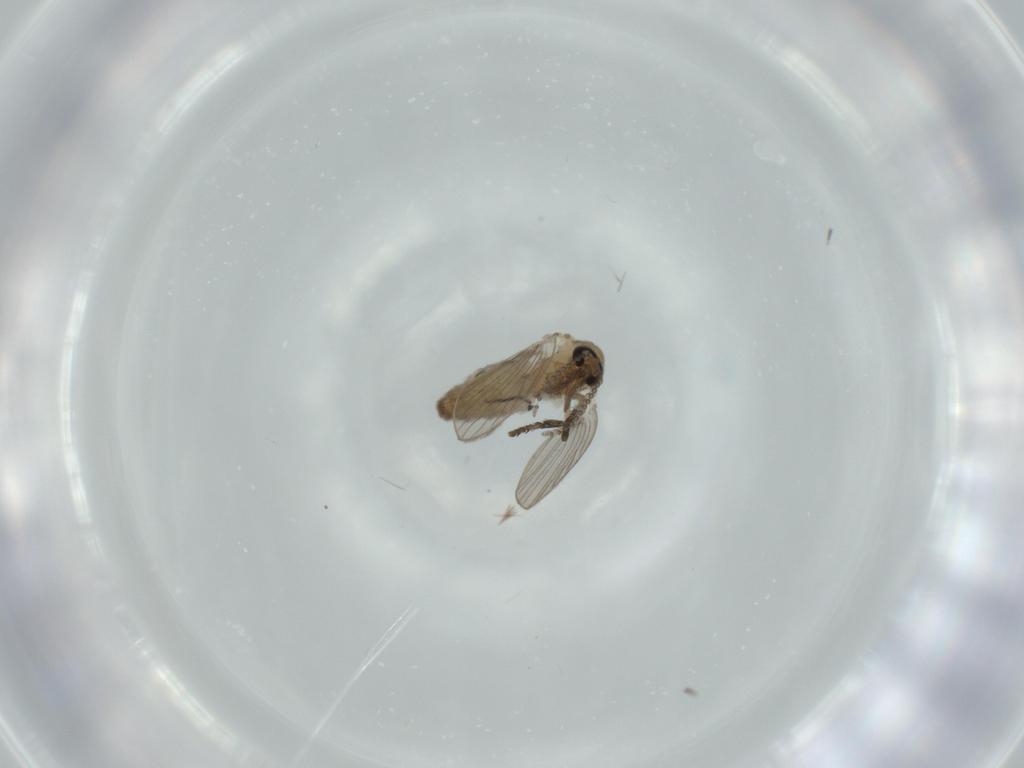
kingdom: Animalia
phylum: Arthropoda
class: Insecta
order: Diptera
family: Psychodidae
